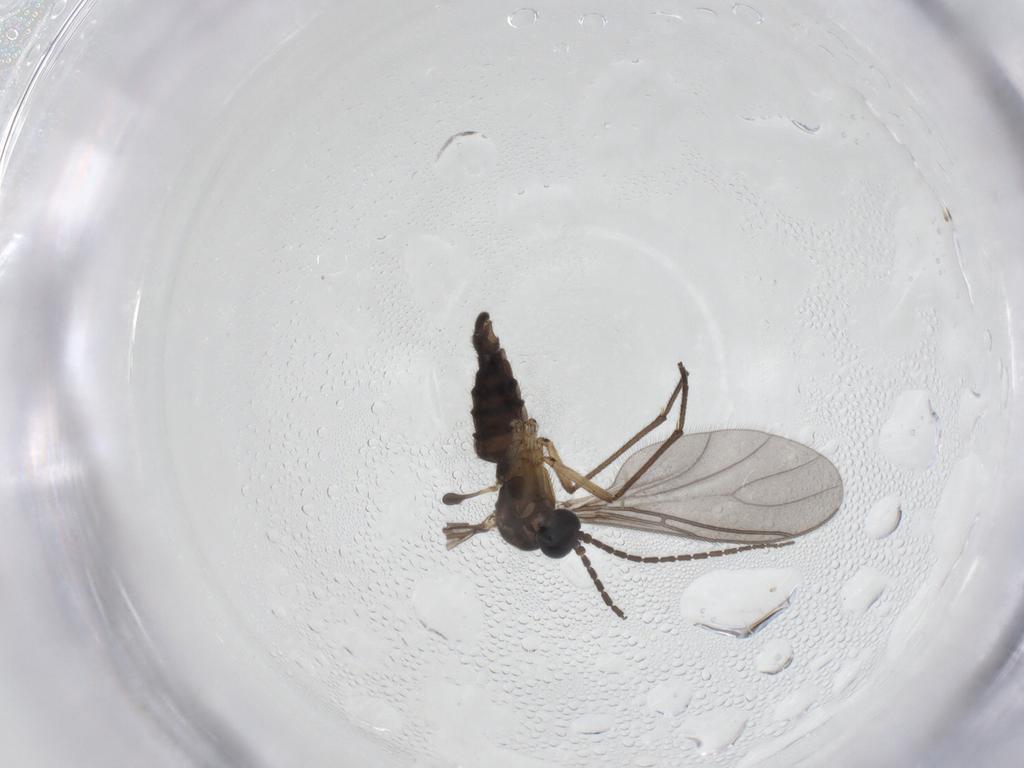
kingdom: Animalia
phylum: Arthropoda
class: Insecta
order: Diptera
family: Sciaridae
